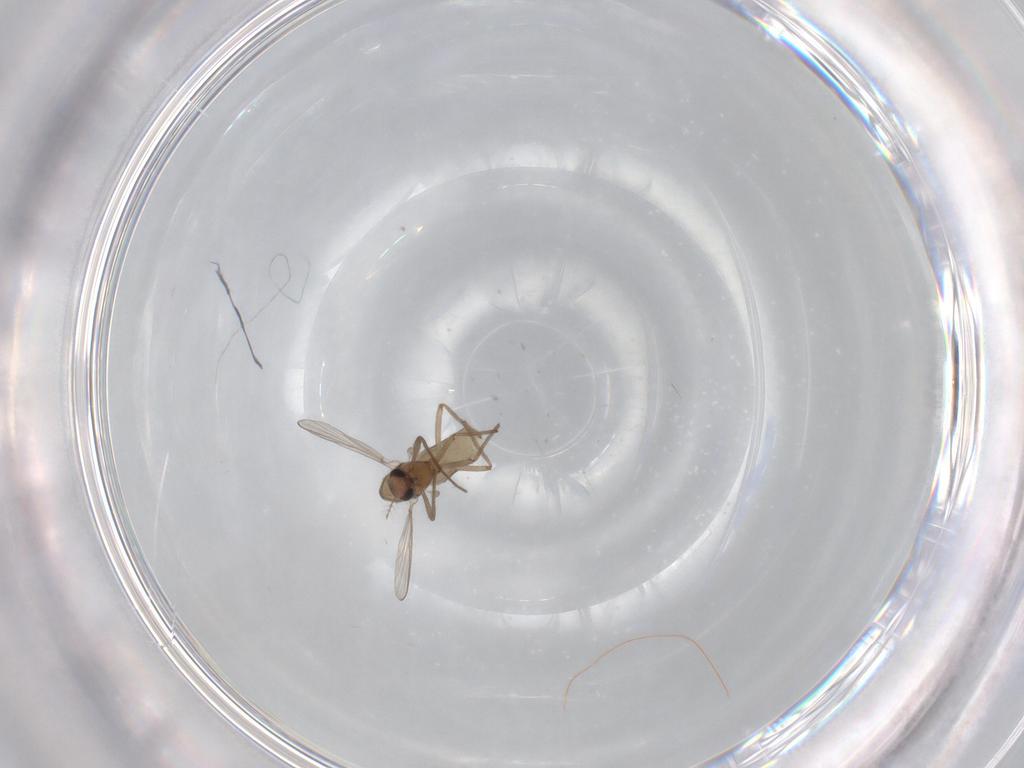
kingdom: Animalia
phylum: Arthropoda
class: Insecta
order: Diptera
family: Chironomidae
